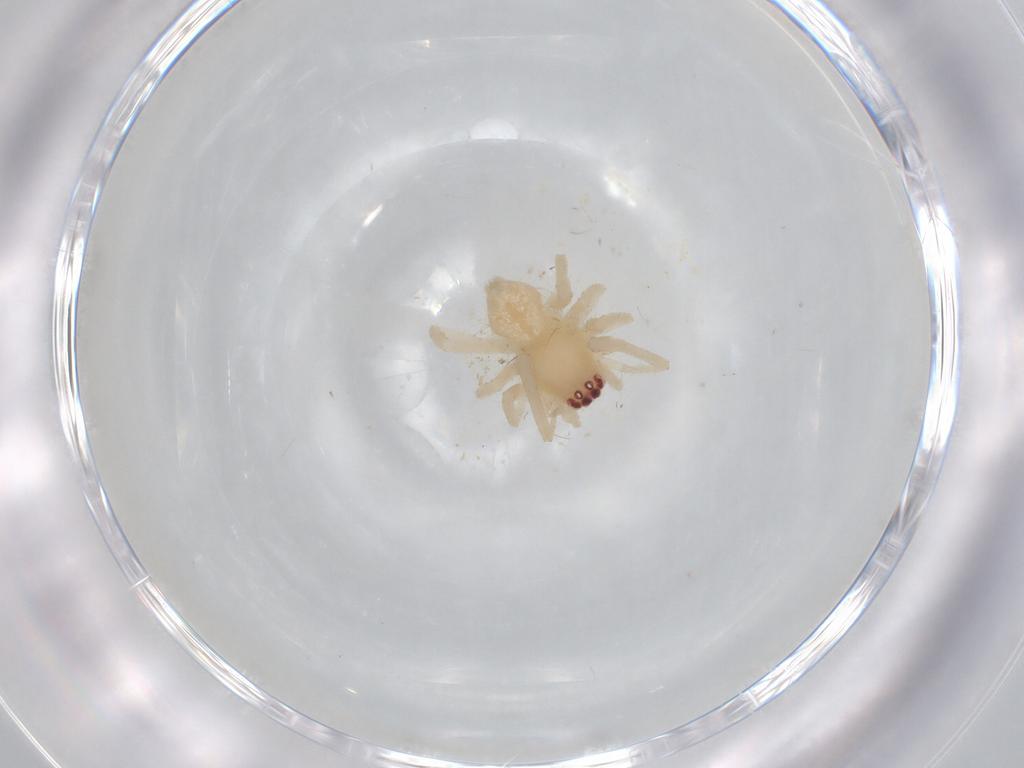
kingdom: Animalia
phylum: Arthropoda
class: Arachnida
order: Araneae
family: Cheiracanthiidae
